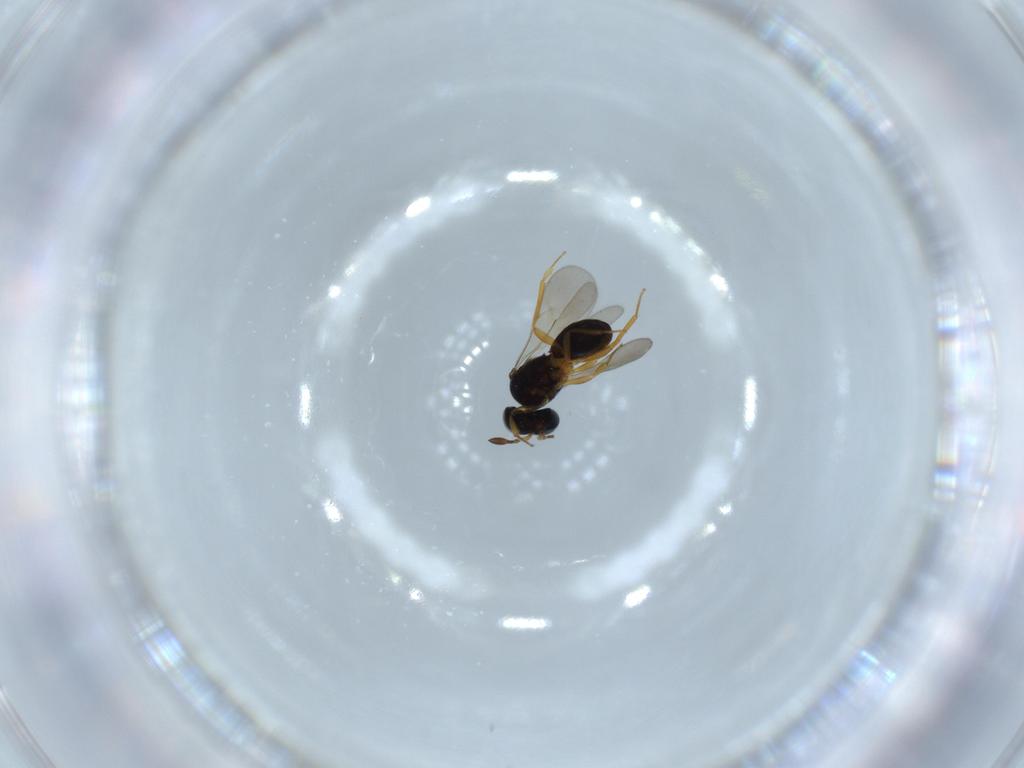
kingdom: Animalia
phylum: Arthropoda
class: Insecta
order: Hymenoptera
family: Scelionidae
